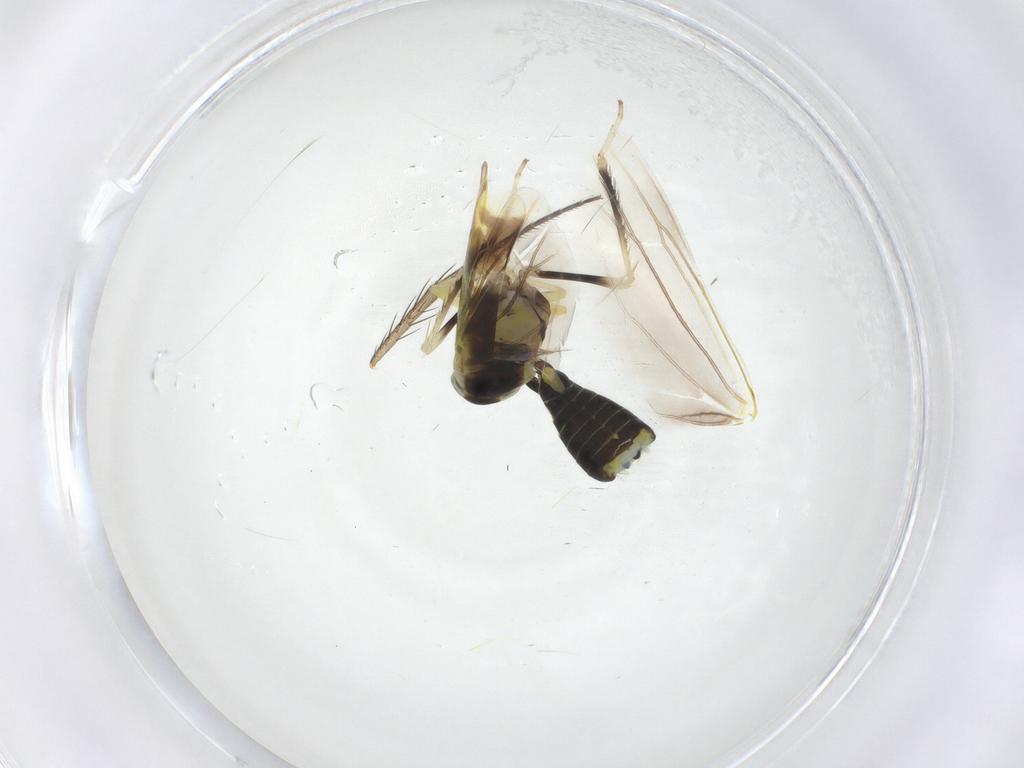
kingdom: Animalia
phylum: Arthropoda
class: Insecta
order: Hemiptera
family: Cicadellidae
